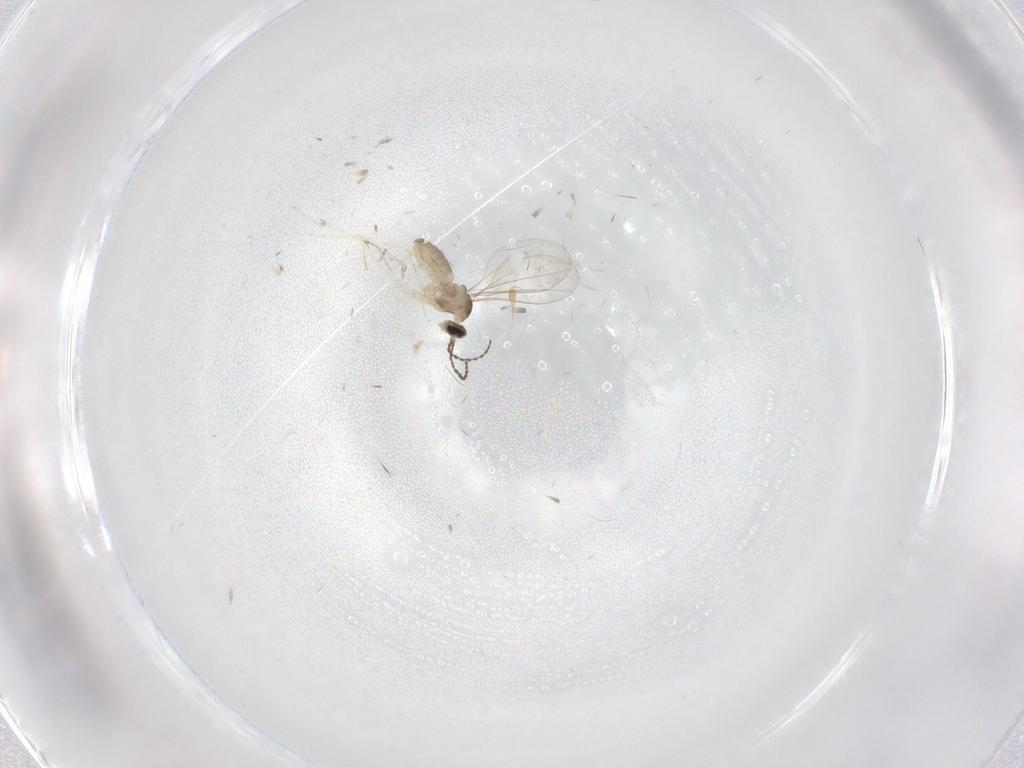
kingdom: Animalia
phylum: Arthropoda
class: Insecta
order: Diptera
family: Cecidomyiidae
